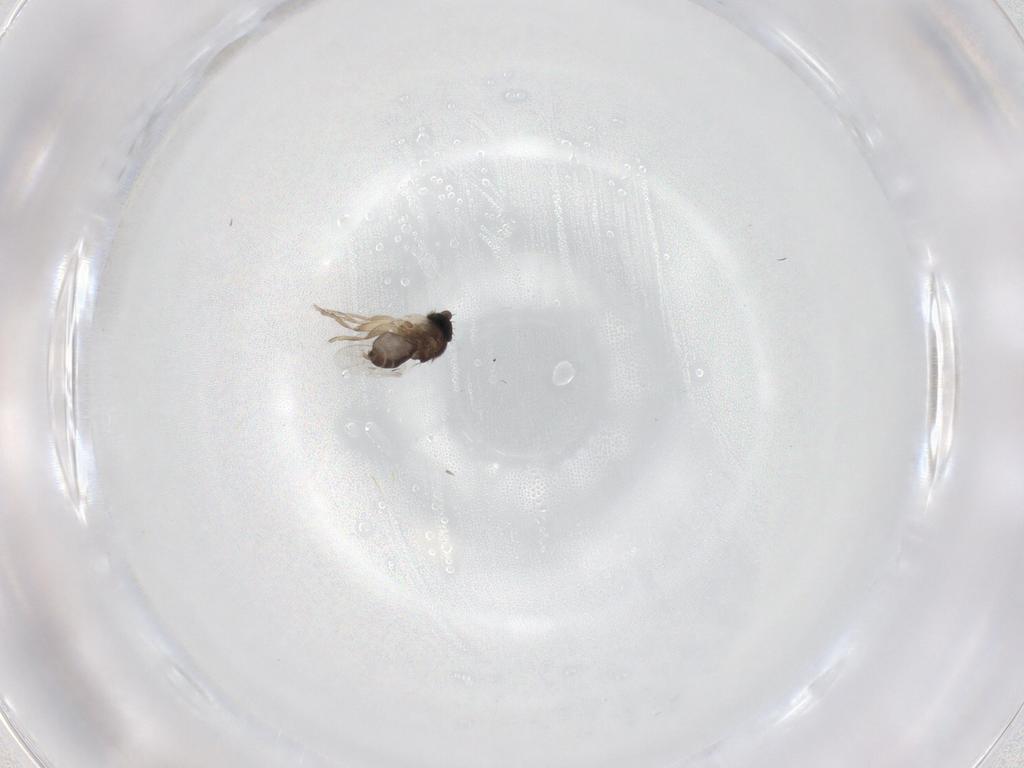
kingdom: Animalia
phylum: Arthropoda
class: Insecta
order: Diptera
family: Phoridae
